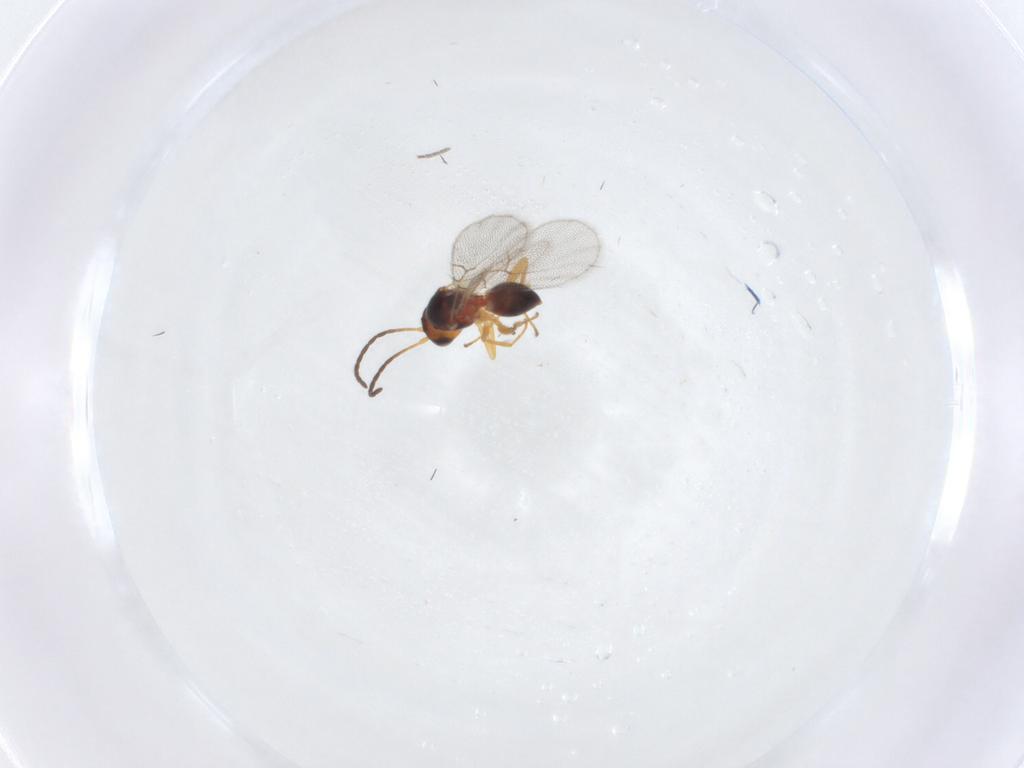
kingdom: Animalia
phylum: Arthropoda
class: Insecta
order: Hymenoptera
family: Figitidae
